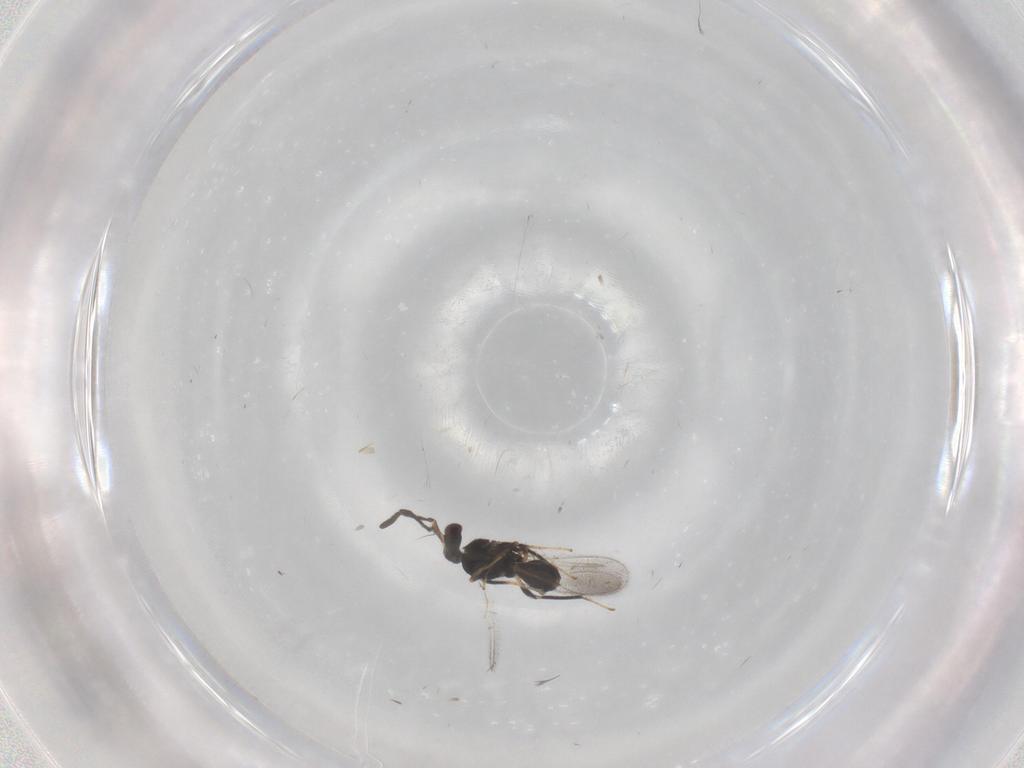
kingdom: Animalia
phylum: Arthropoda
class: Insecta
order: Hymenoptera
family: Mymaridae
